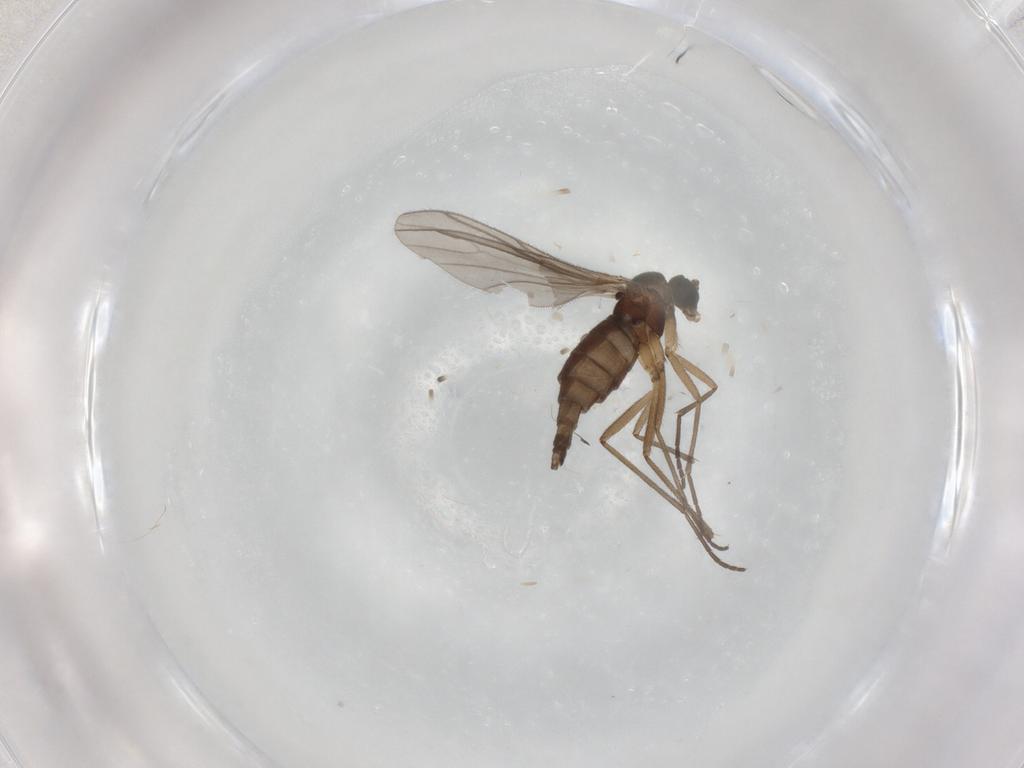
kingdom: Animalia
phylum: Arthropoda
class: Insecta
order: Diptera
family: Sciaridae
